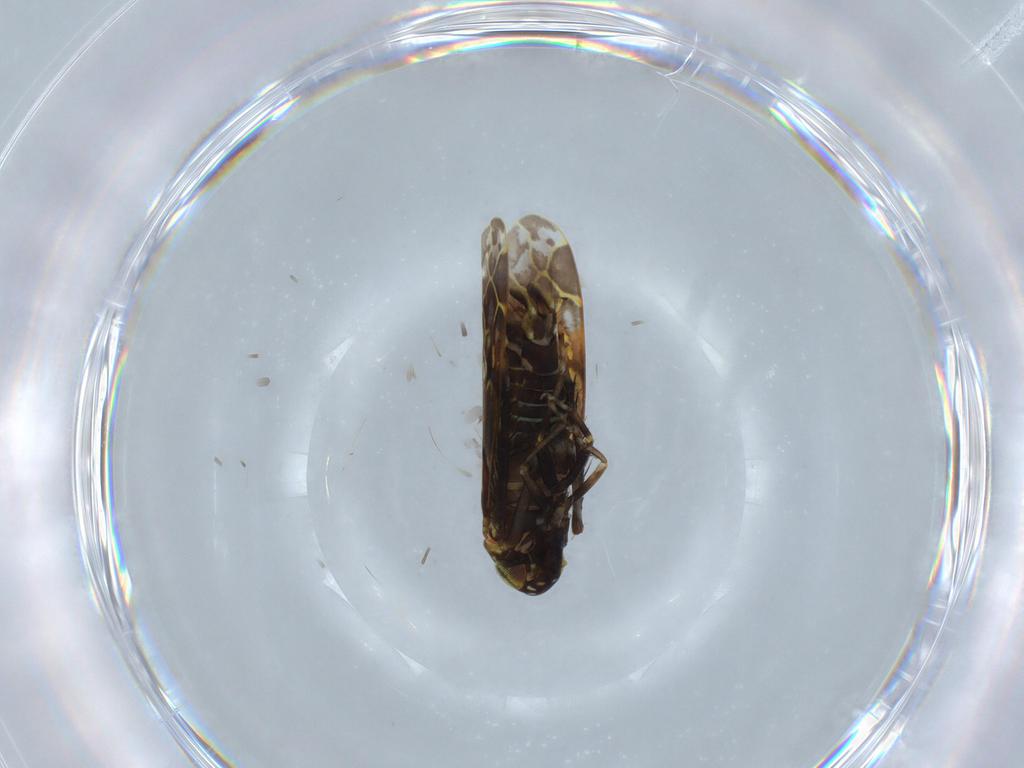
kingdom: Animalia
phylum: Arthropoda
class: Insecta
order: Hemiptera
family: Cicadellidae
